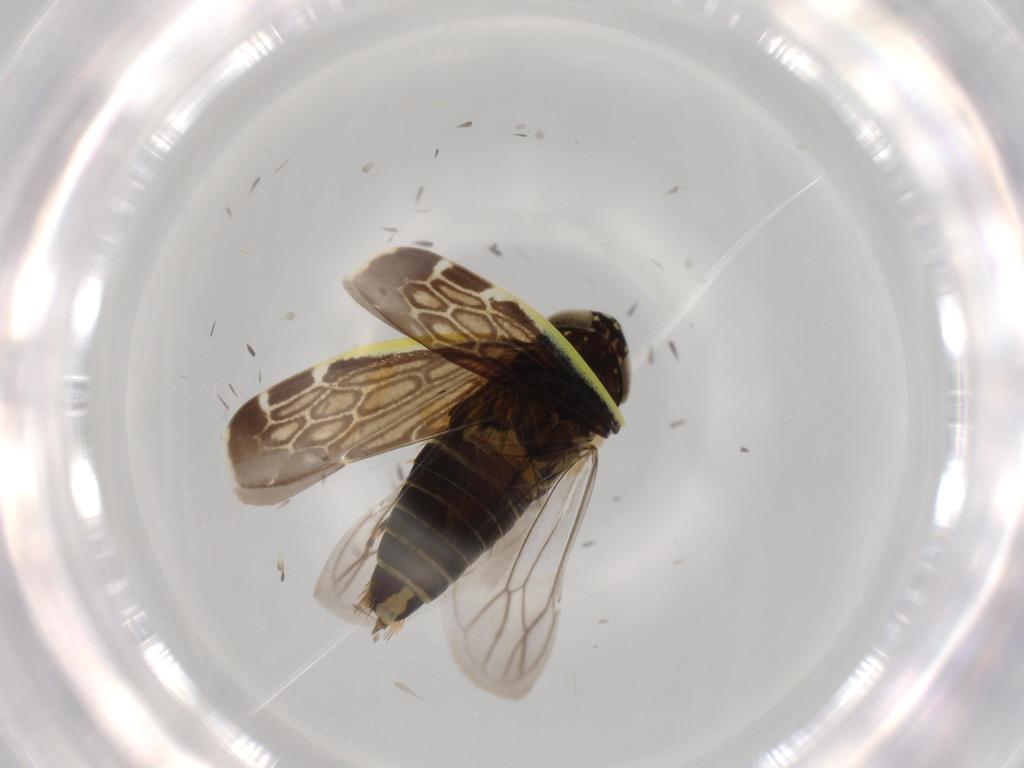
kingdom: Animalia
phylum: Arthropoda
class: Insecta
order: Hemiptera
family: Cicadellidae
